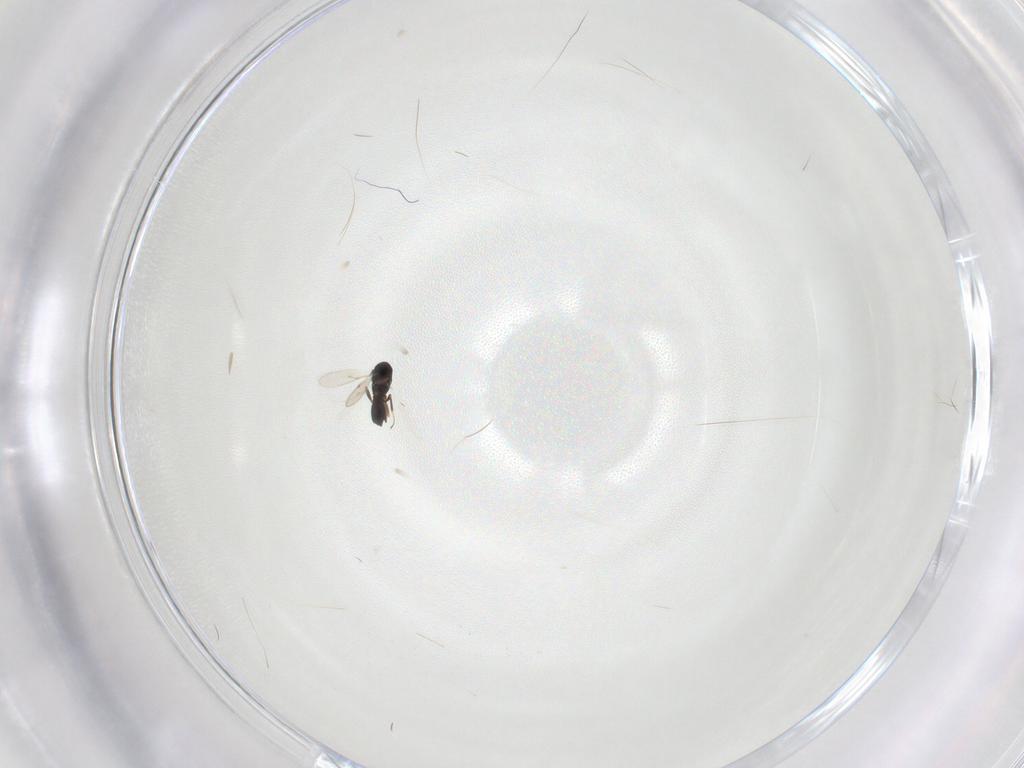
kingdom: Animalia
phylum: Arthropoda
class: Insecta
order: Hymenoptera
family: Scelionidae
